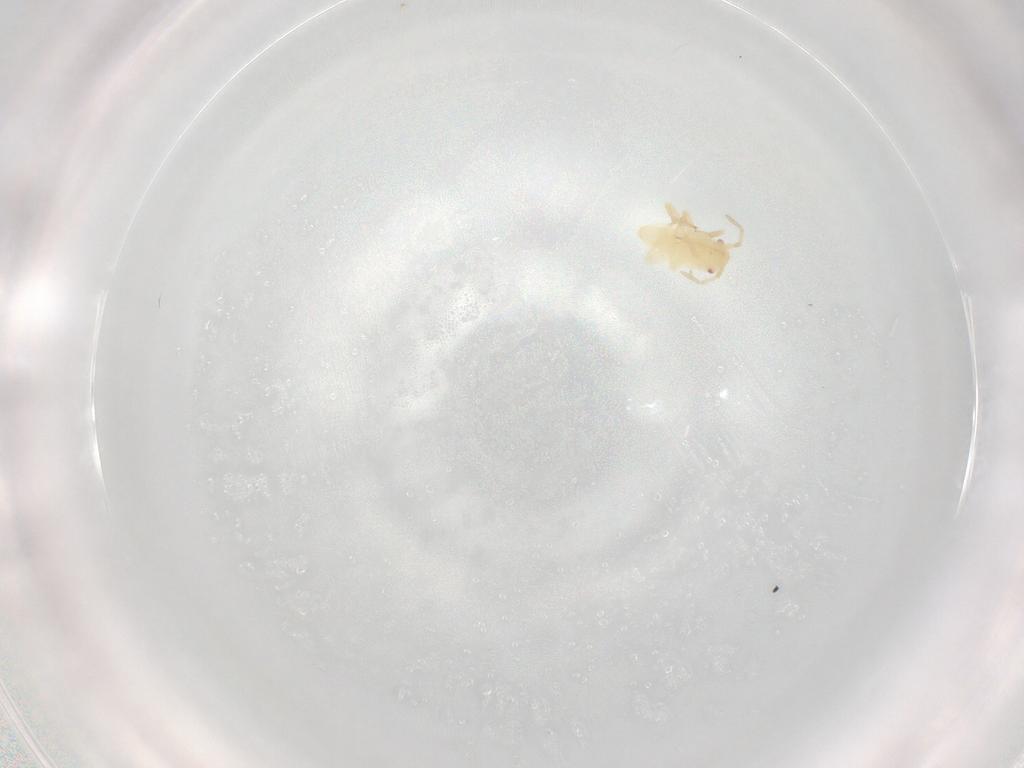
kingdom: Animalia
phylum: Arthropoda
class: Insecta
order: Hemiptera
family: Miridae
